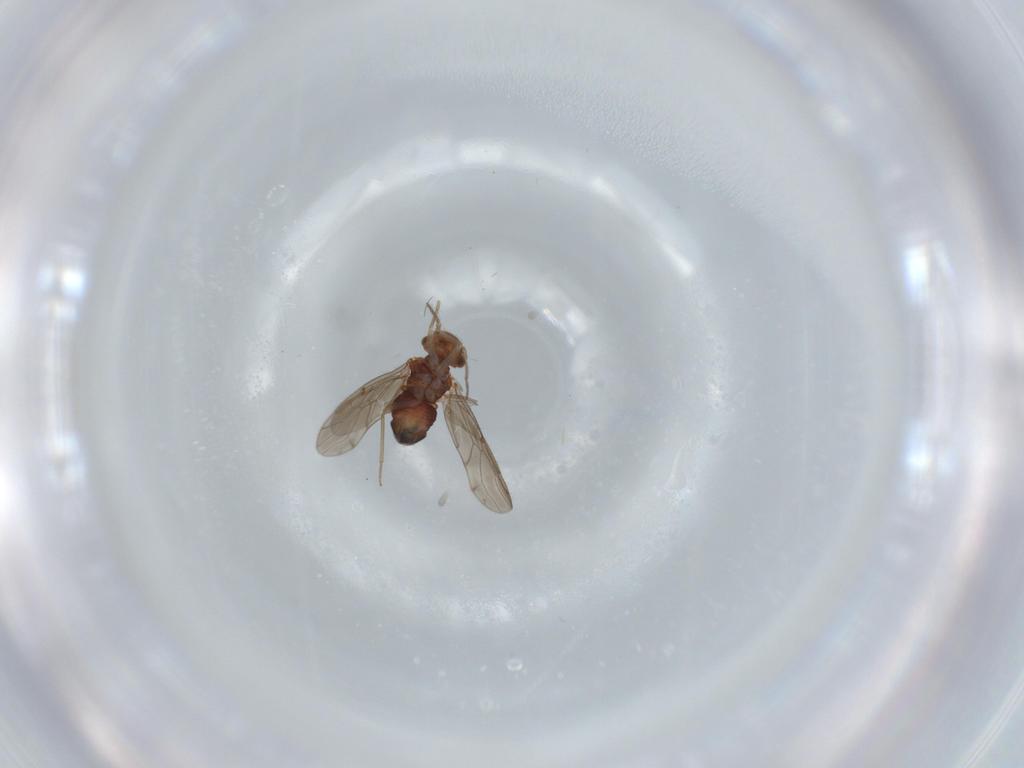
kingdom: Animalia
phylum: Arthropoda
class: Insecta
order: Psocodea
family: Ectopsocidae
